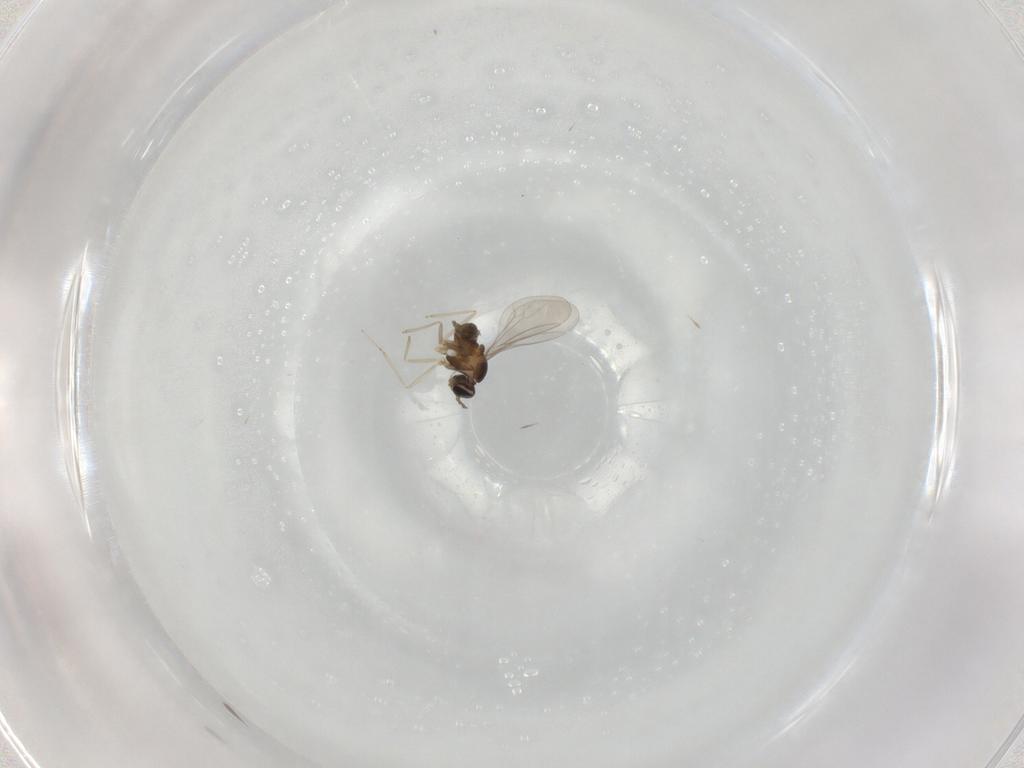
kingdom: Animalia
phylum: Arthropoda
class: Insecta
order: Diptera
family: Cecidomyiidae
